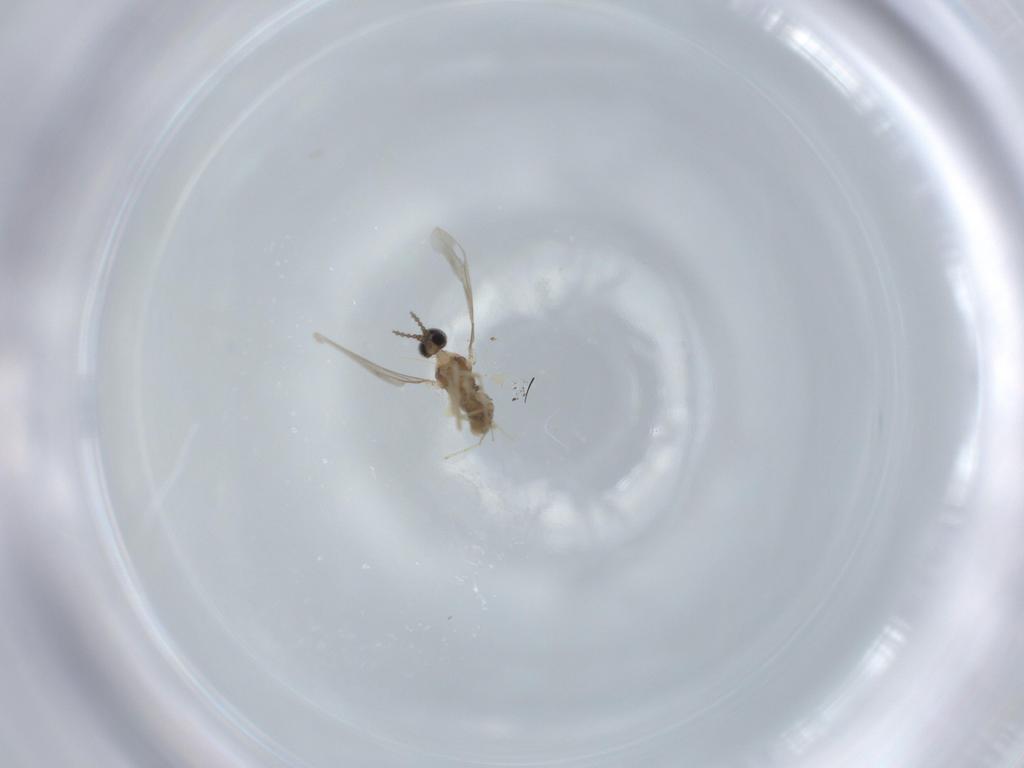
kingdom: Animalia
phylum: Arthropoda
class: Insecta
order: Diptera
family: Cecidomyiidae
